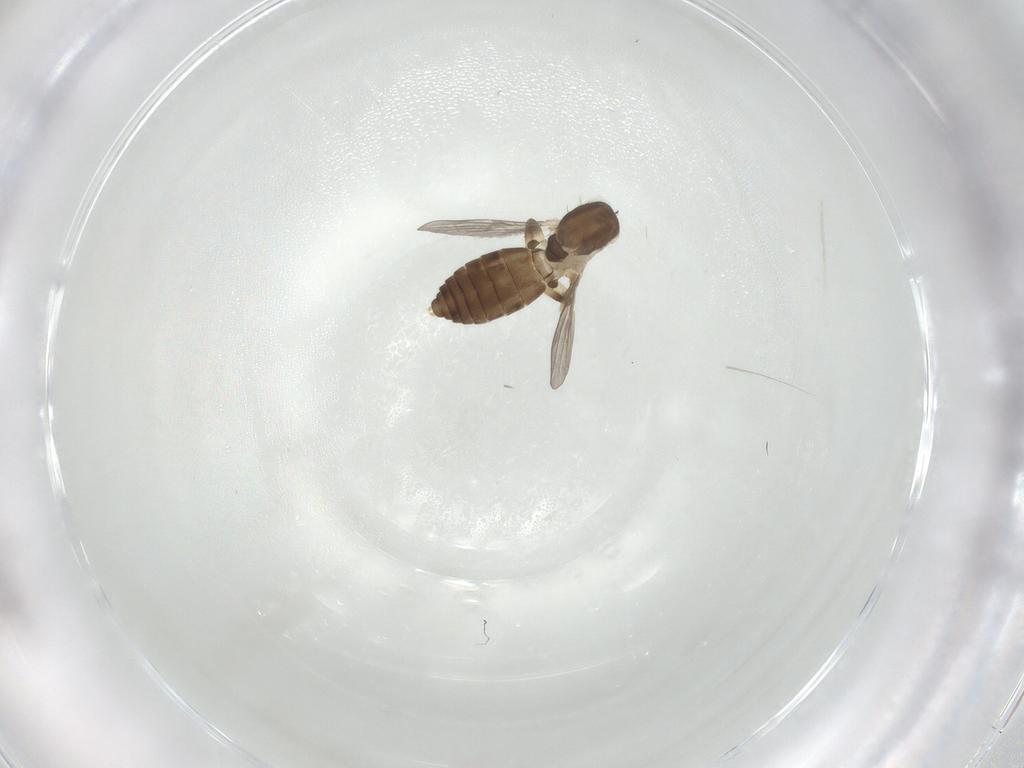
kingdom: Animalia
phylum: Arthropoda
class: Insecta
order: Diptera
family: Ceratopogonidae
